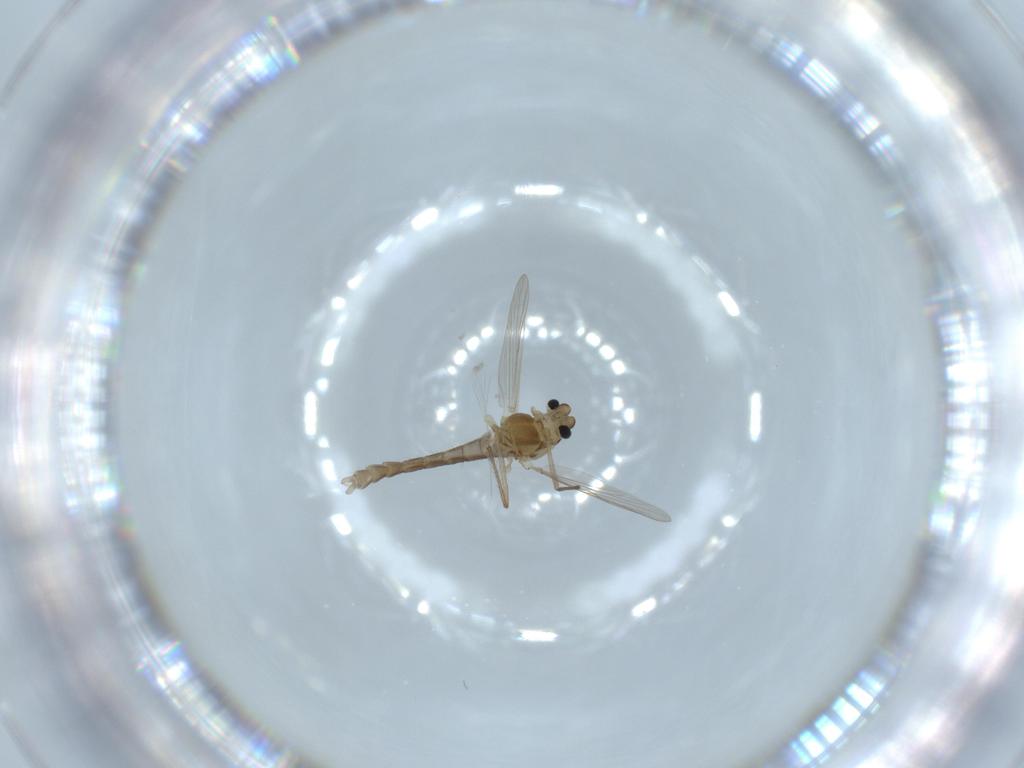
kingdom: Animalia
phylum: Arthropoda
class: Insecta
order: Diptera
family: Chironomidae
